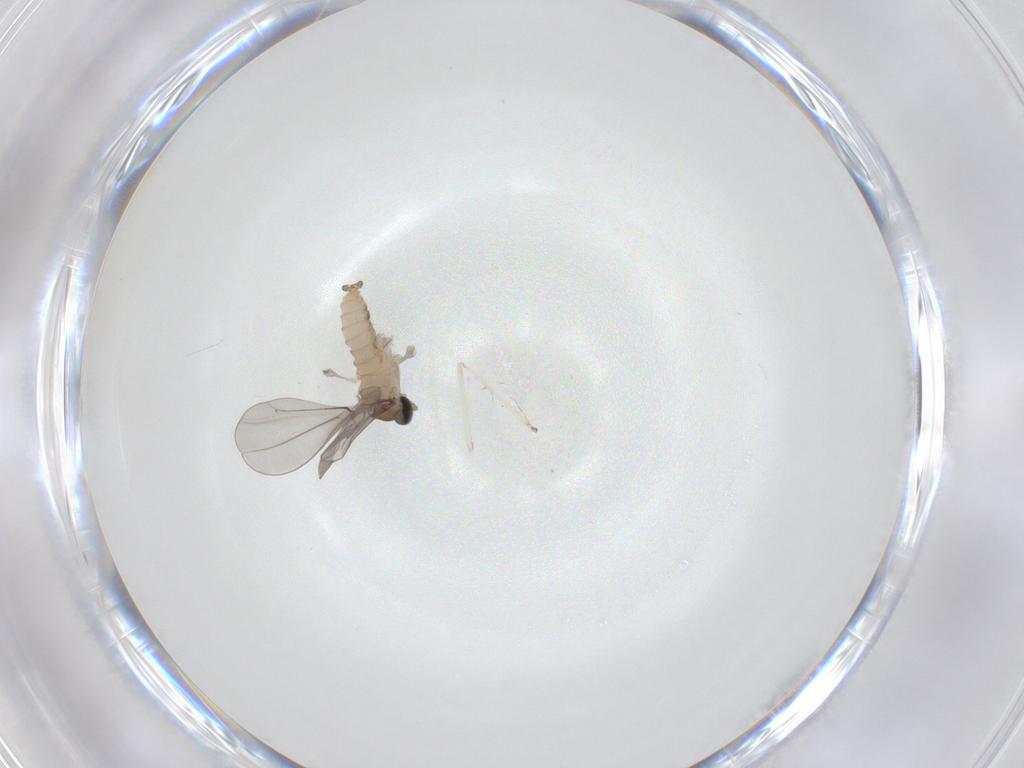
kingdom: Animalia
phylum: Arthropoda
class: Insecta
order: Diptera
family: Cecidomyiidae
